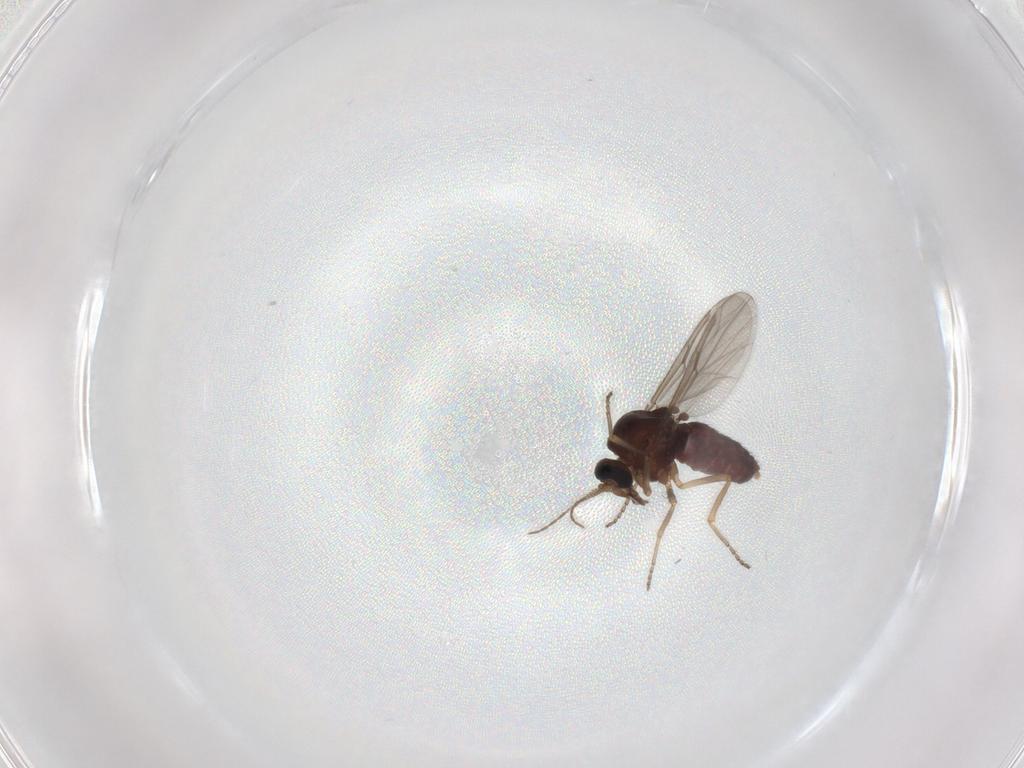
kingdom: Animalia
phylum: Arthropoda
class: Insecta
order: Diptera
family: Ceratopogonidae
